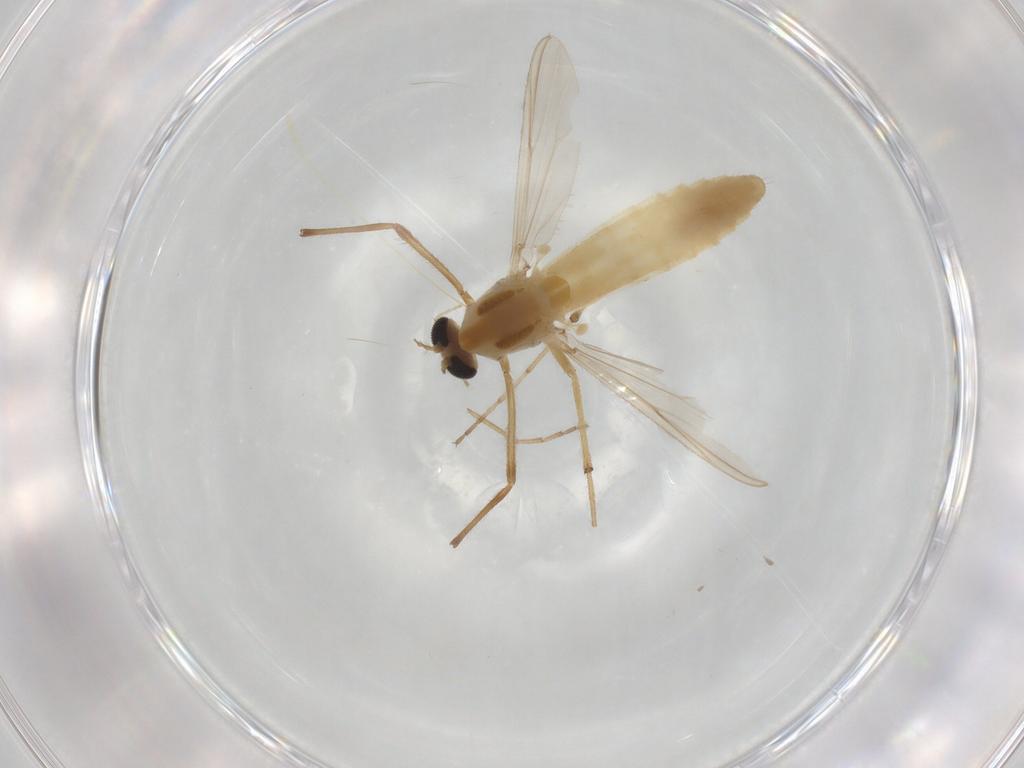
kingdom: Animalia
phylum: Arthropoda
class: Insecta
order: Diptera
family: Chironomidae
